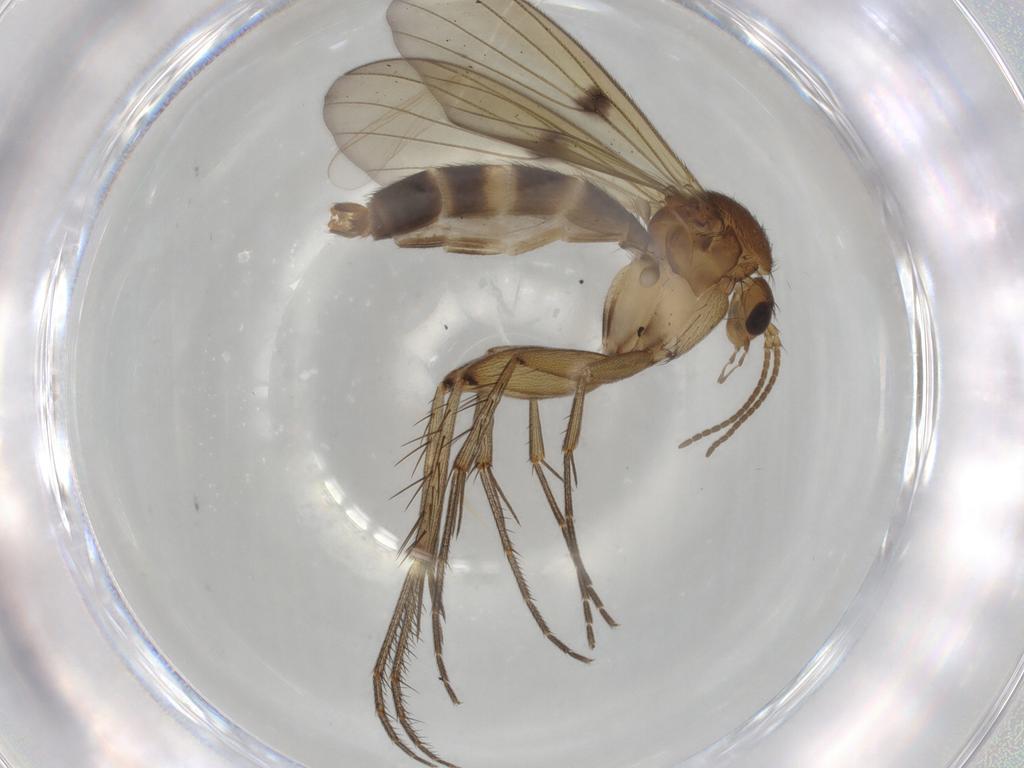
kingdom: Animalia
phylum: Arthropoda
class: Insecta
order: Diptera
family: Mycetophilidae
